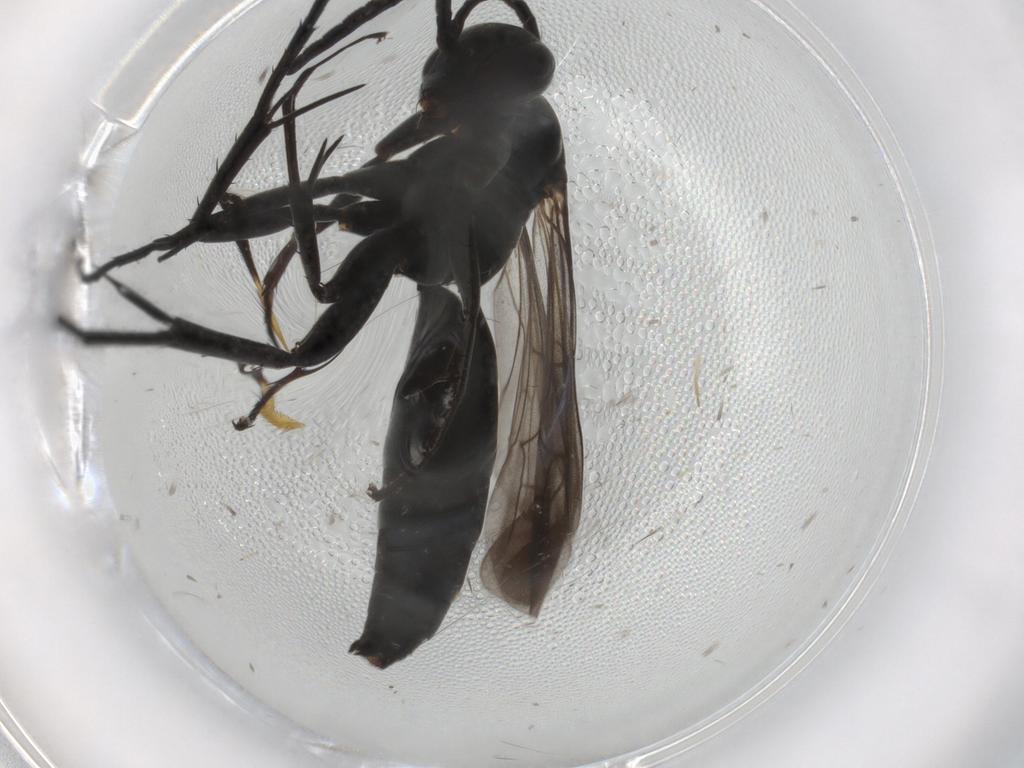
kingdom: Animalia
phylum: Arthropoda
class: Insecta
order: Hymenoptera
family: Pompilidae
